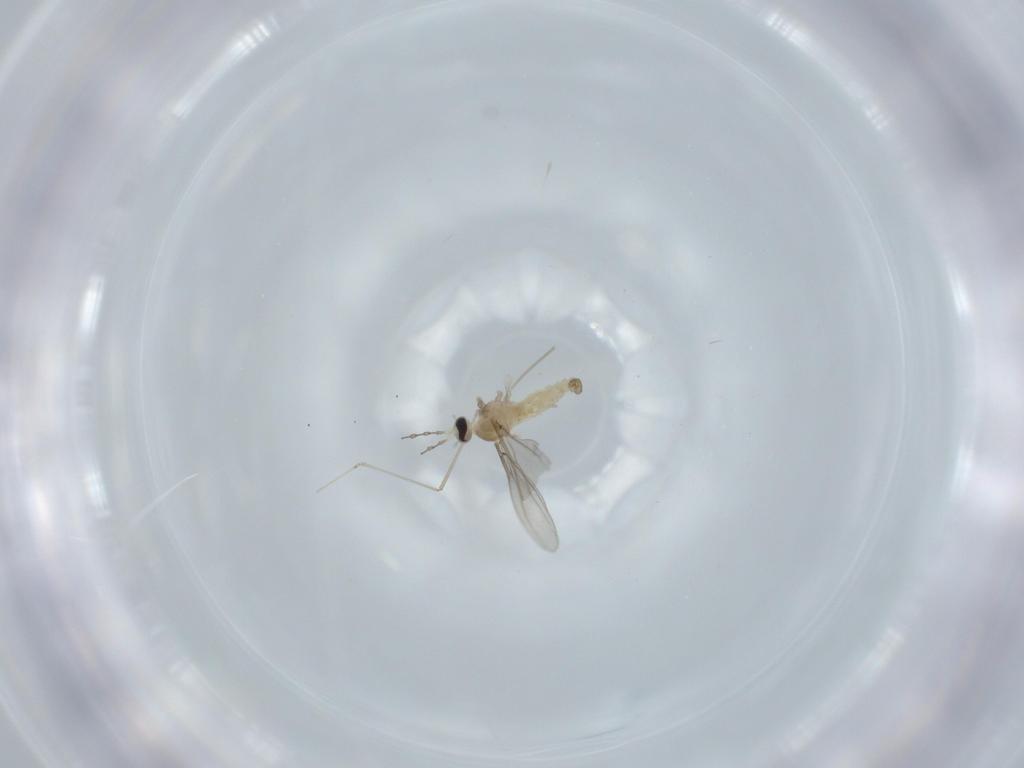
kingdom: Animalia
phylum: Arthropoda
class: Insecta
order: Diptera
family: Cecidomyiidae
